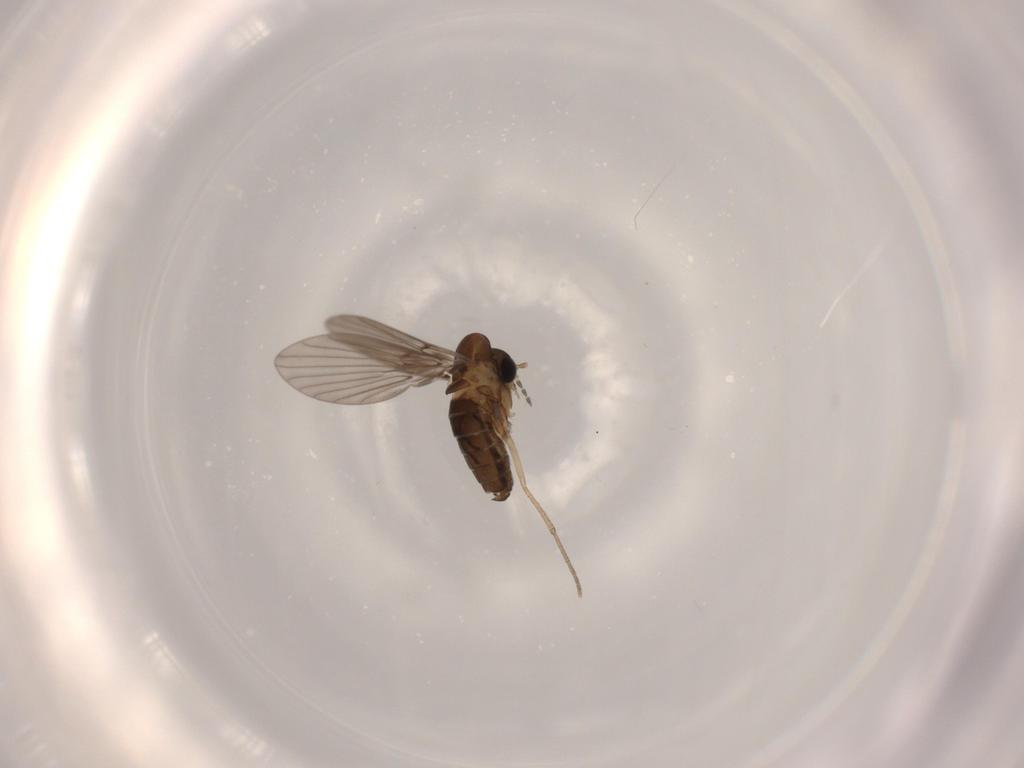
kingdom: Animalia
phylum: Arthropoda
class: Insecta
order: Diptera
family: Psychodidae
